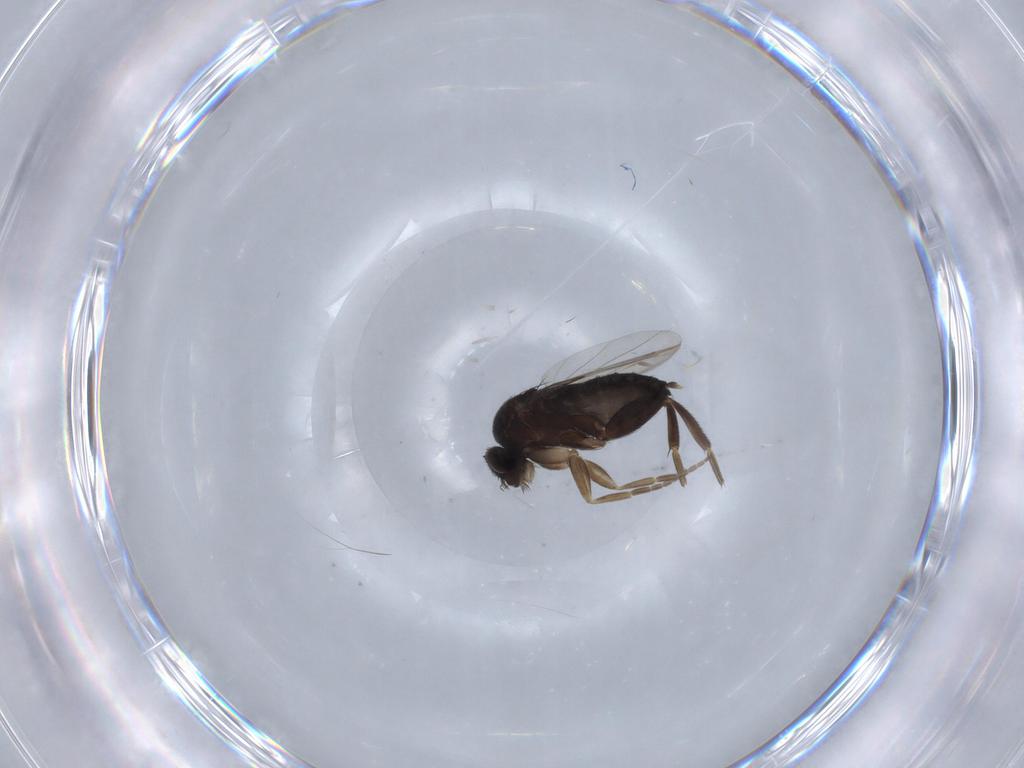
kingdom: Animalia
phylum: Arthropoda
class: Insecta
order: Diptera
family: Phoridae
